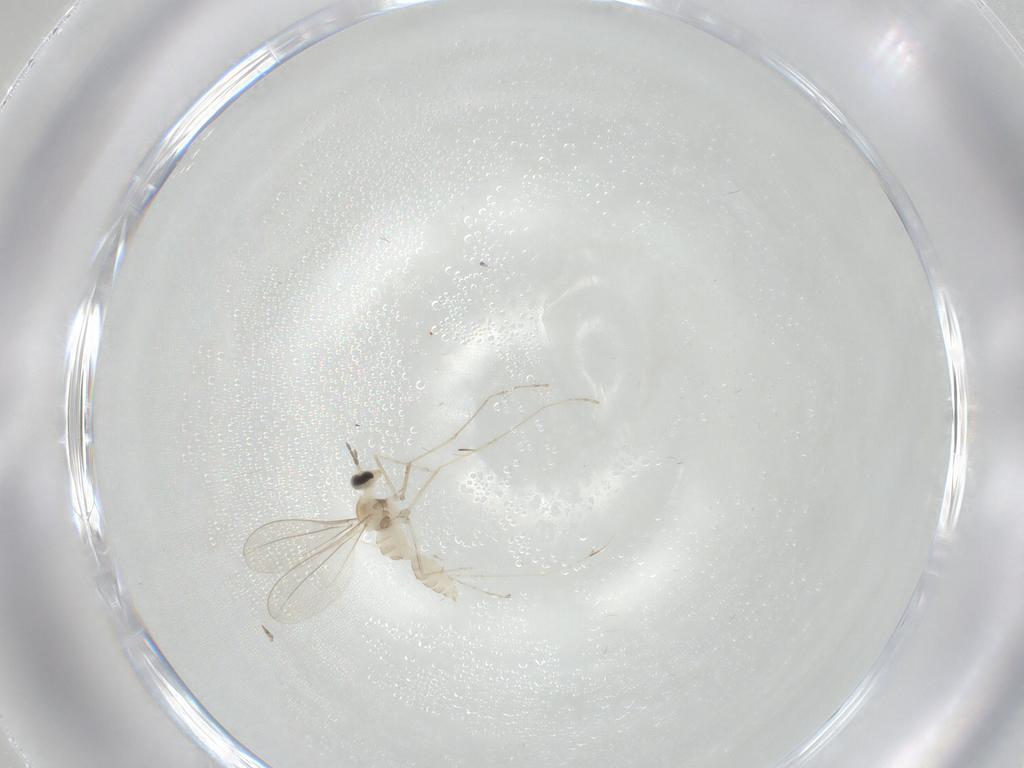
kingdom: Animalia
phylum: Arthropoda
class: Insecta
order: Diptera
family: Cecidomyiidae
